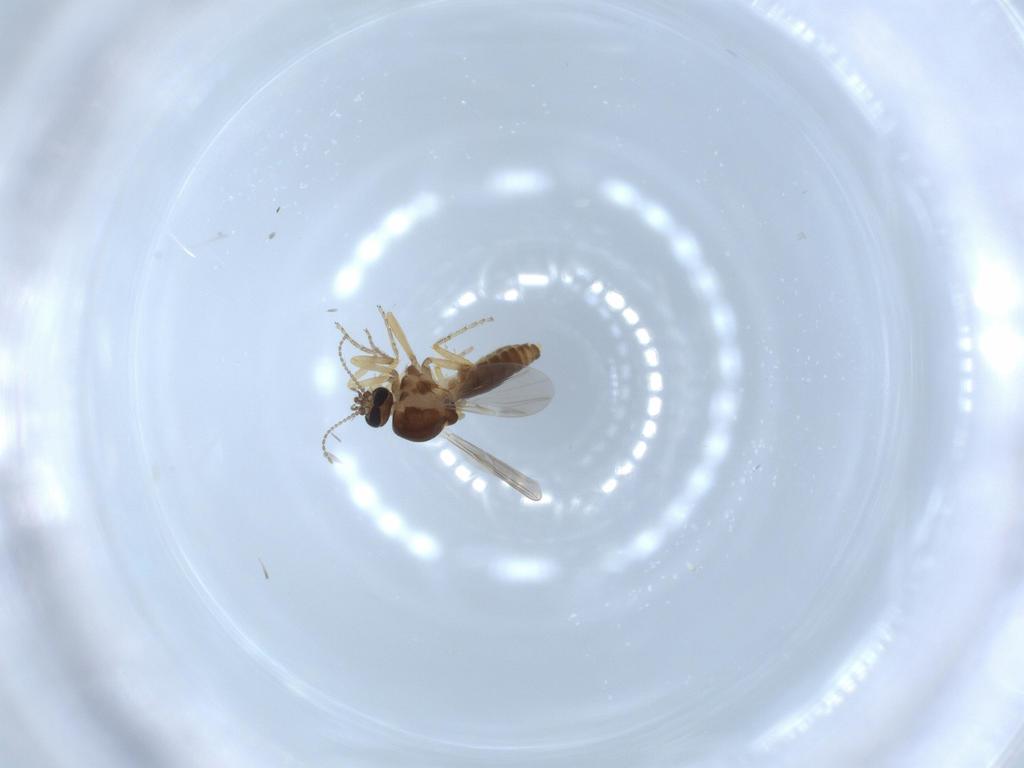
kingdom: Animalia
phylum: Arthropoda
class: Insecta
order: Diptera
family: Ceratopogonidae
